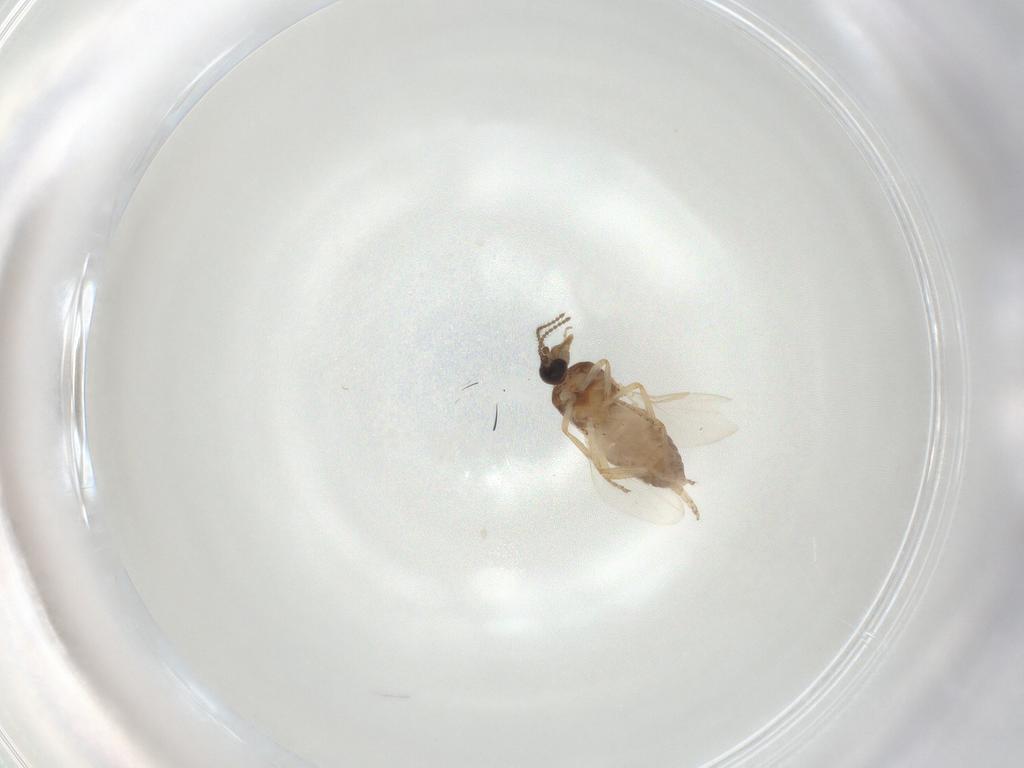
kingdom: Animalia
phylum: Arthropoda
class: Insecta
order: Diptera
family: Ceratopogonidae
